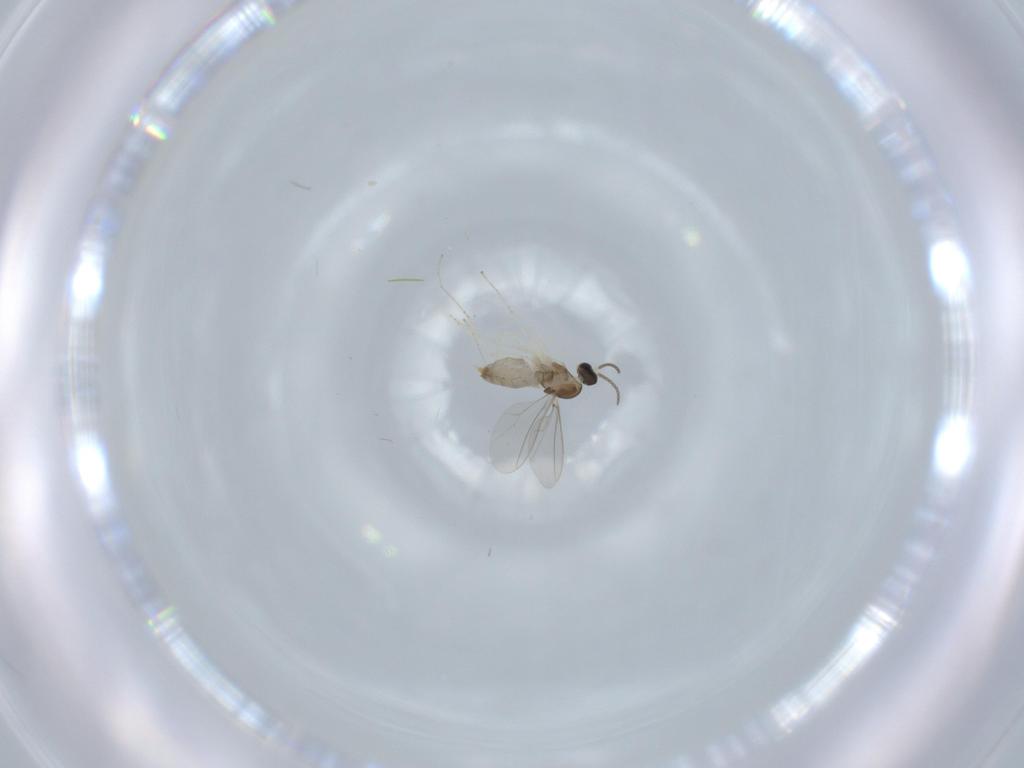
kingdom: Animalia
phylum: Arthropoda
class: Insecta
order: Diptera
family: Cecidomyiidae
